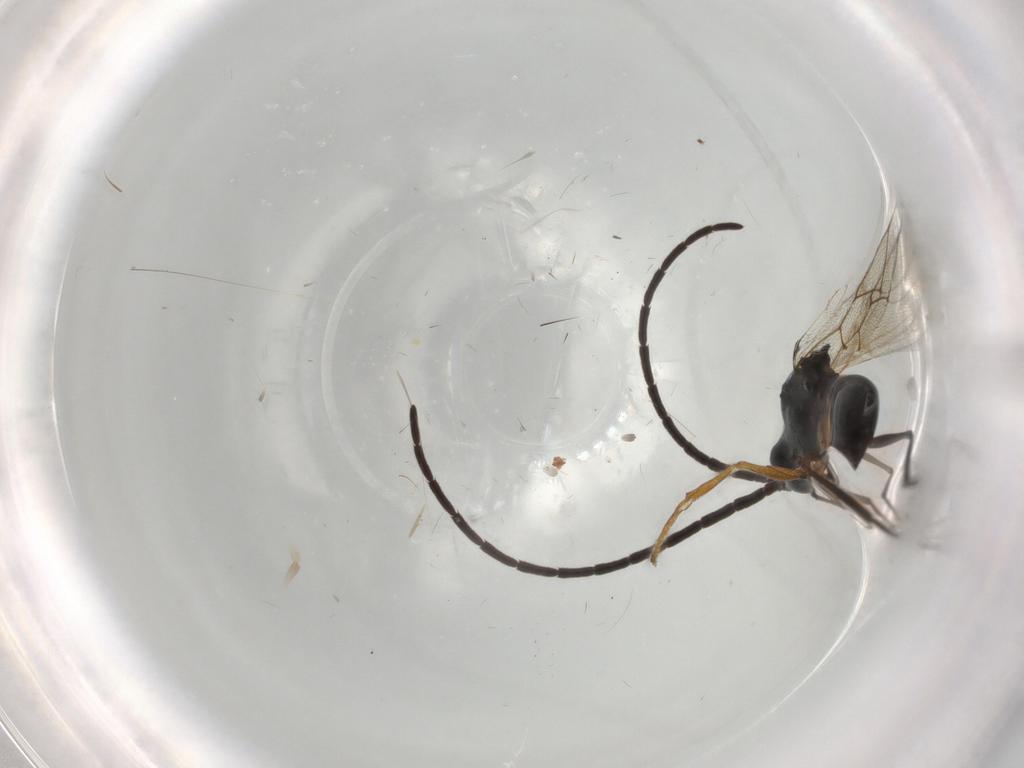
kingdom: Animalia
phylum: Arthropoda
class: Insecta
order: Hymenoptera
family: Figitidae
